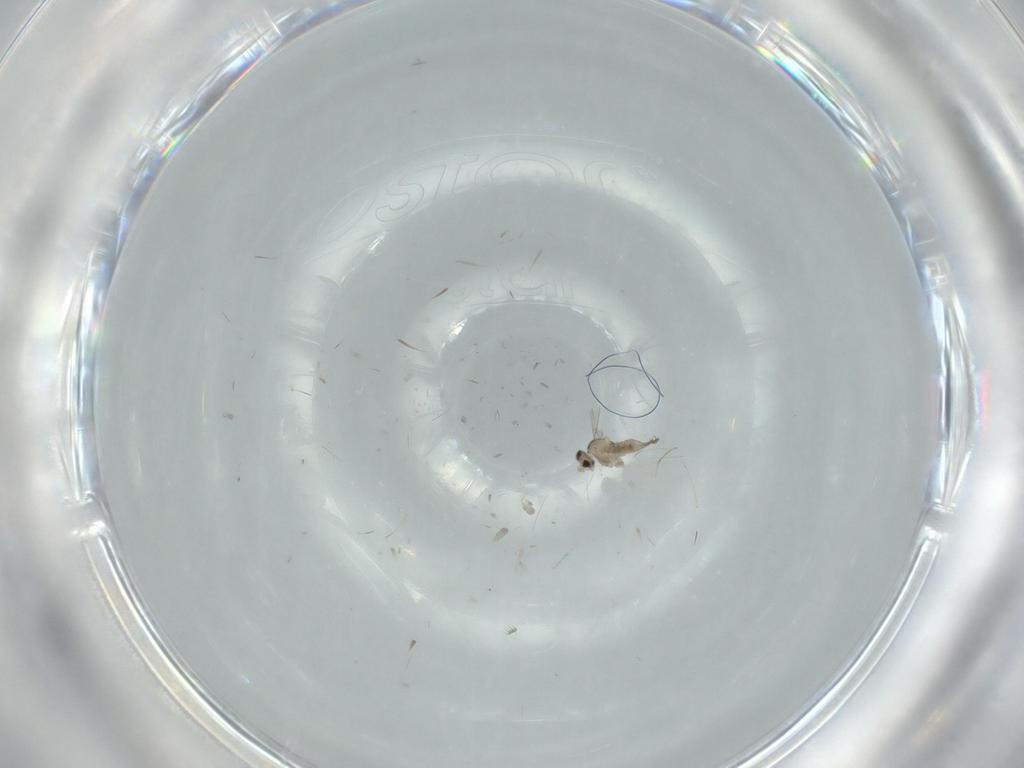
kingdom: Animalia
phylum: Arthropoda
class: Insecta
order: Diptera
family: Cecidomyiidae
